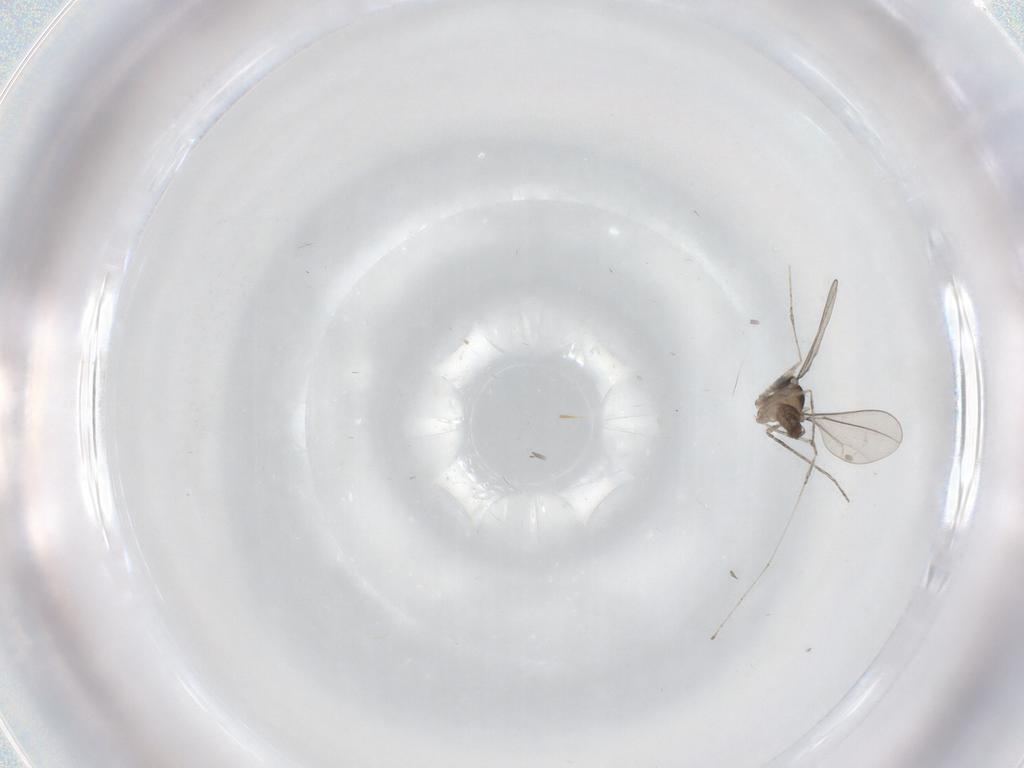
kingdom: Animalia
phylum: Arthropoda
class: Insecta
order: Diptera
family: Cecidomyiidae
